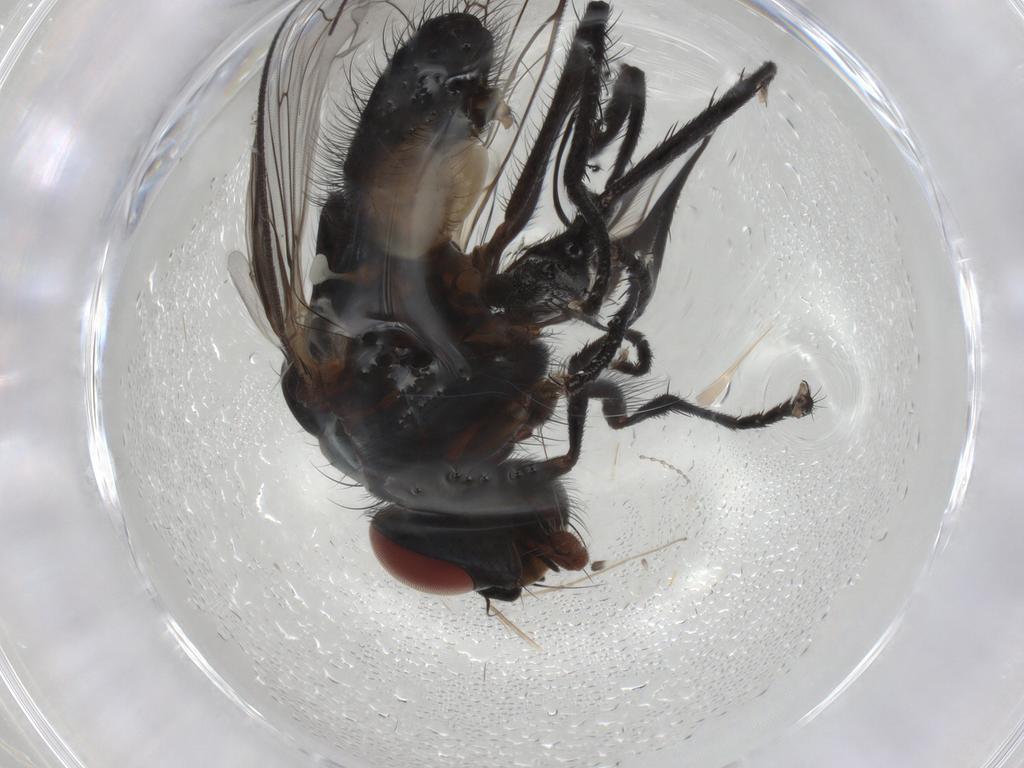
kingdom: Animalia
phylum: Arthropoda
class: Insecta
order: Diptera
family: Anthomyiidae
